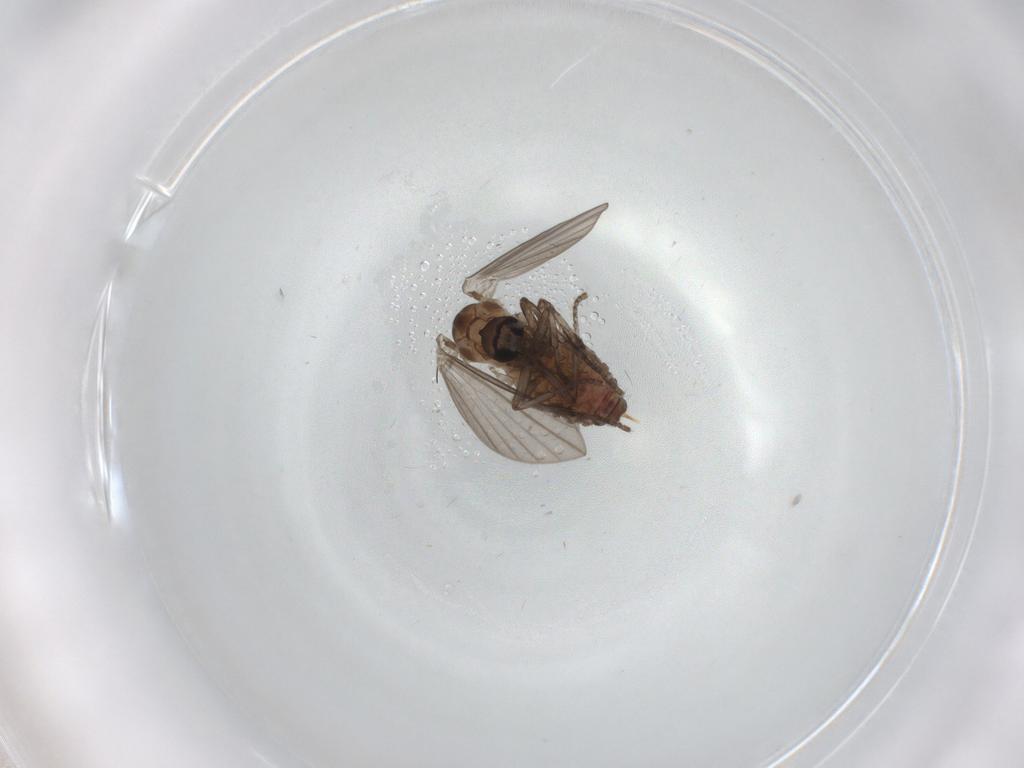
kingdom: Animalia
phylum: Arthropoda
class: Insecta
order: Diptera
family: Psychodidae
